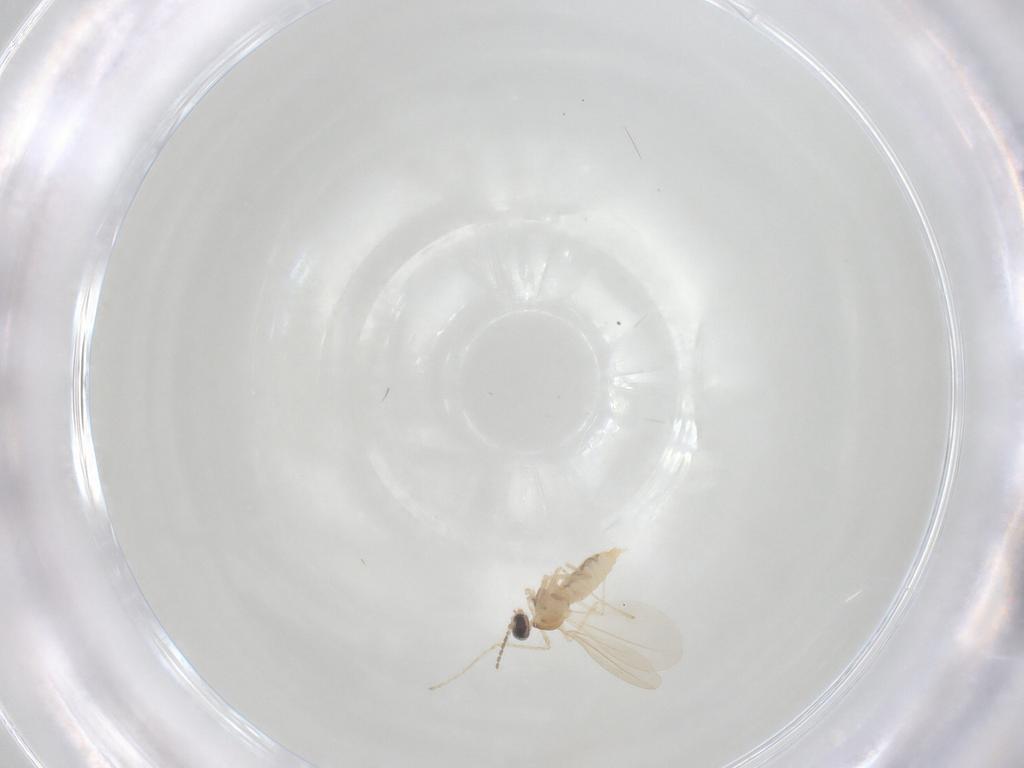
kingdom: Animalia
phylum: Arthropoda
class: Insecta
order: Diptera
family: Cecidomyiidae
